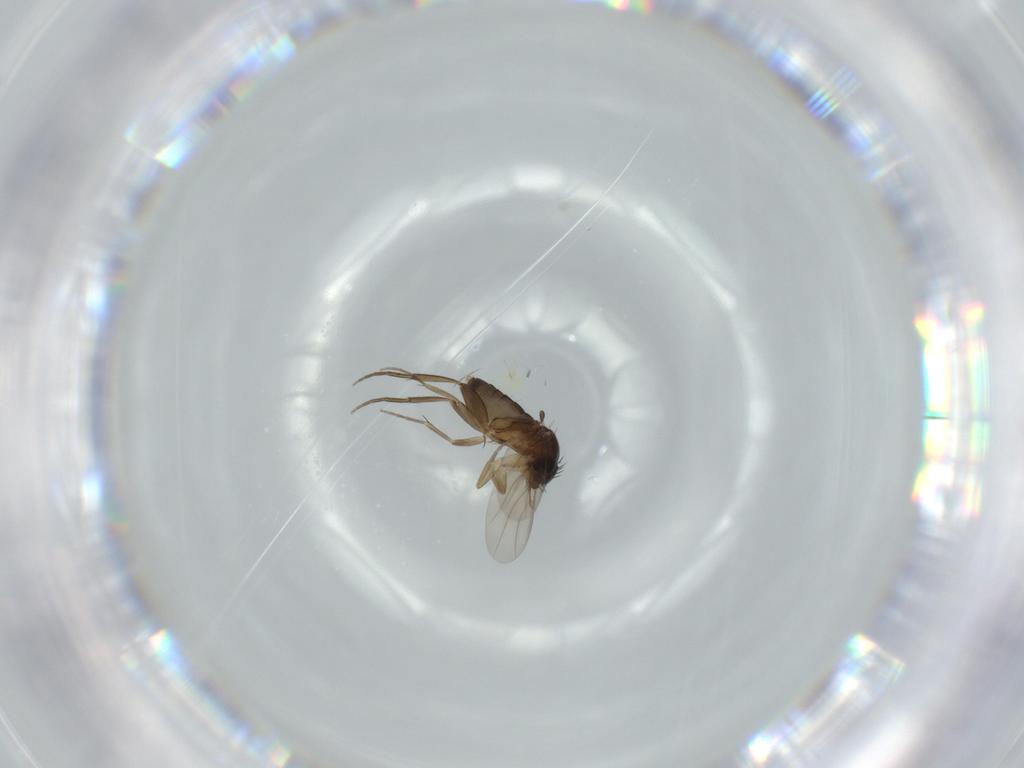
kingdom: Animalia
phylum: Arthropoda
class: Insecta
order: Diptera
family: Phoridae
